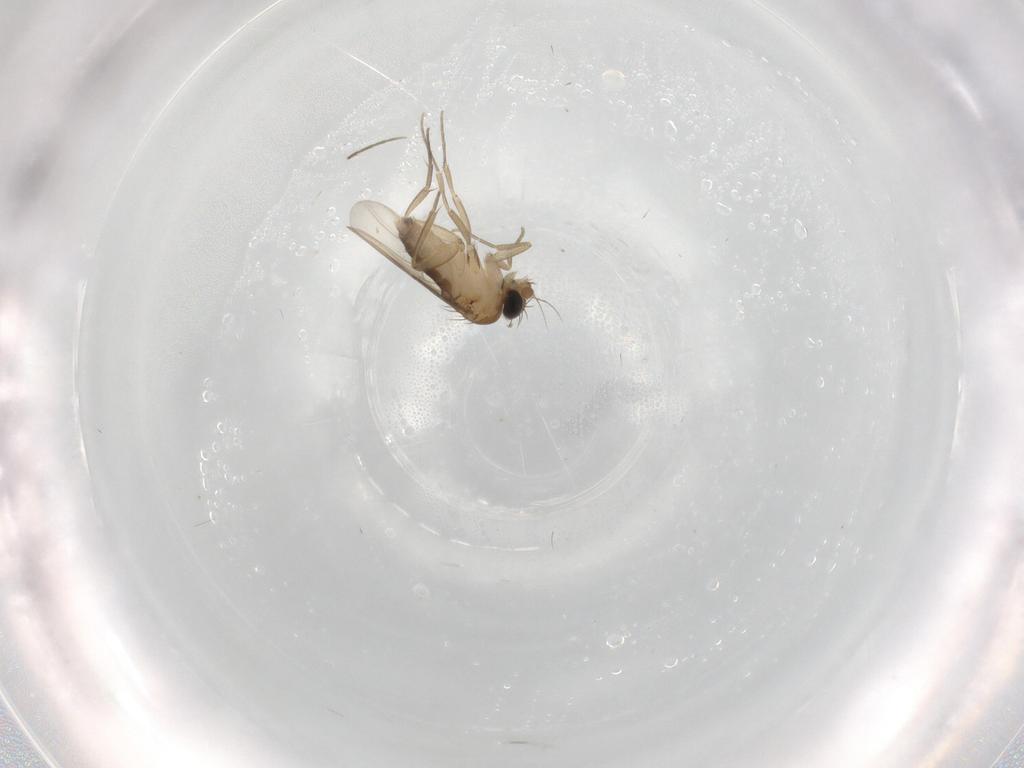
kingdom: Animalia
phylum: Arthropoda
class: Insecta
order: Diptera
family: Phoridae
